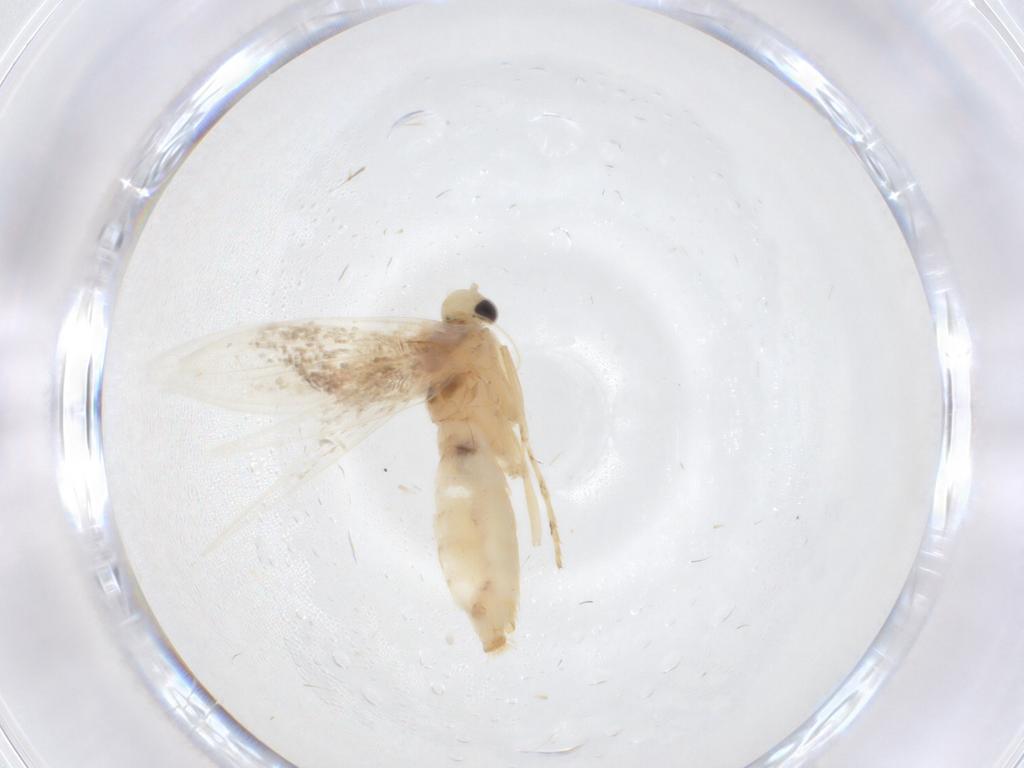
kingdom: Animalia
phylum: Arthropoda
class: Insecta
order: Lepidoptera
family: Gracillariidae
